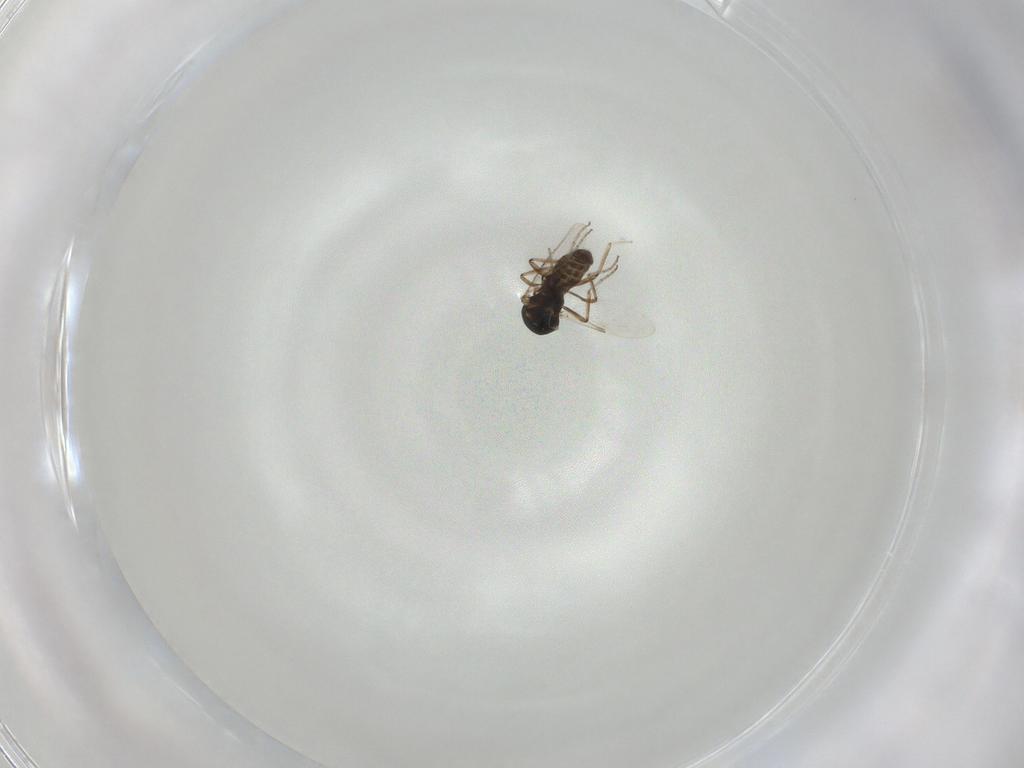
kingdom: Animalia
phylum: Arthropoda
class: Insecta
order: Diptera
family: Ceratopogonidae
